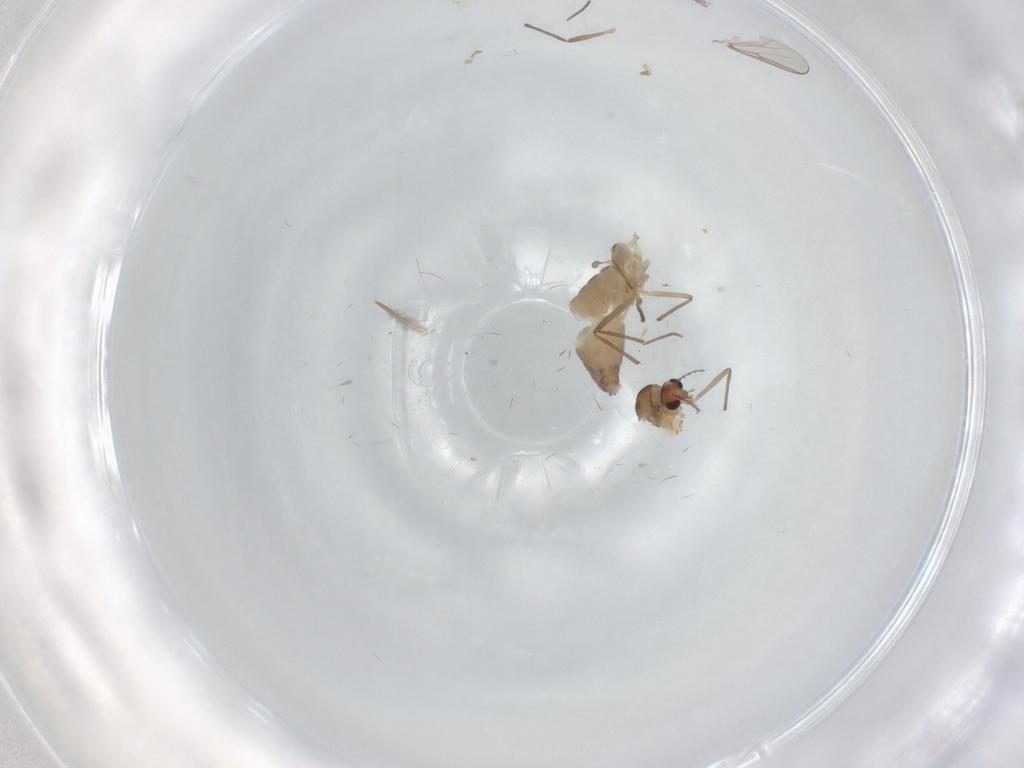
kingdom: Animalia
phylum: Arthropoda
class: Insecta
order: Diptera
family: Chironomidae
